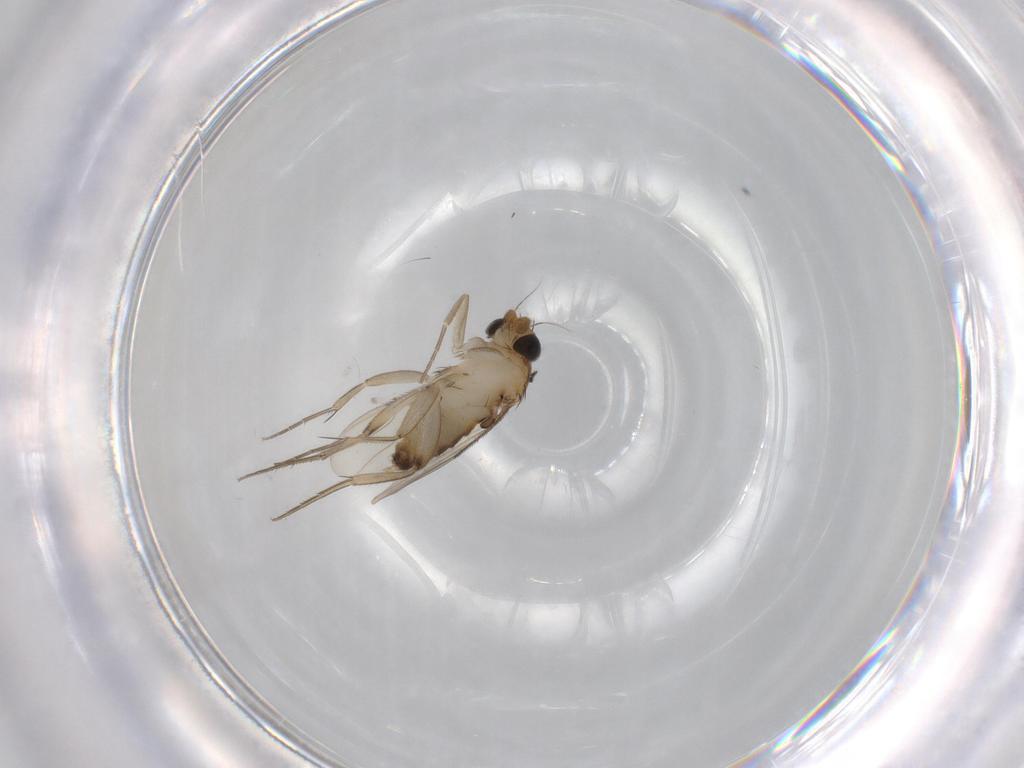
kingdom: Animalia
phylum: Arthropoda
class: Insecta
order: Diptera
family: Phoridae
